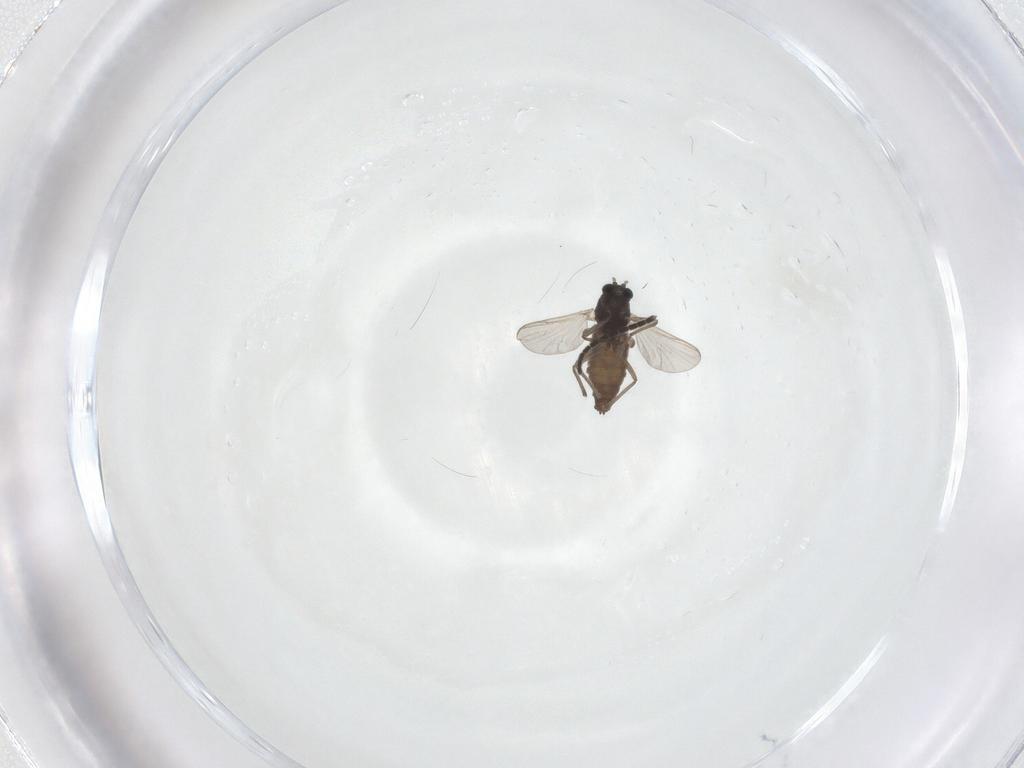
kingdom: Animalia
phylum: Arthropoda
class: Insecta
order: Diptera
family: Chironomidae
